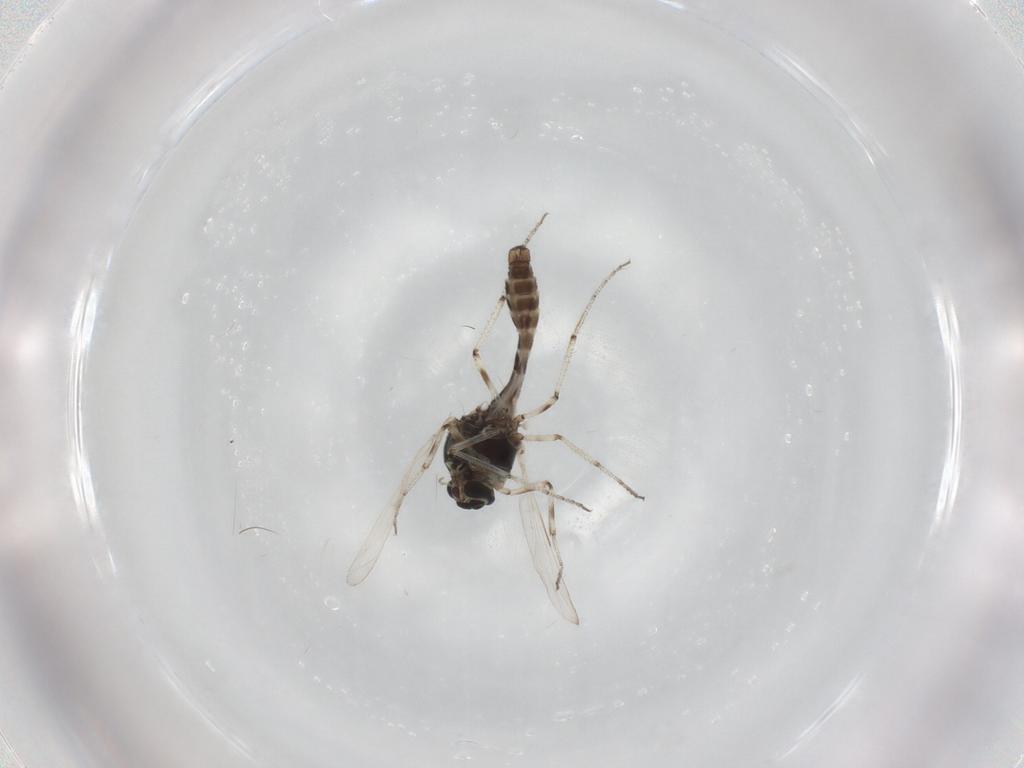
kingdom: Animalia
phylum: Arthropoda
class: Insecta
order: Diptera
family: Ceratopogonidae
